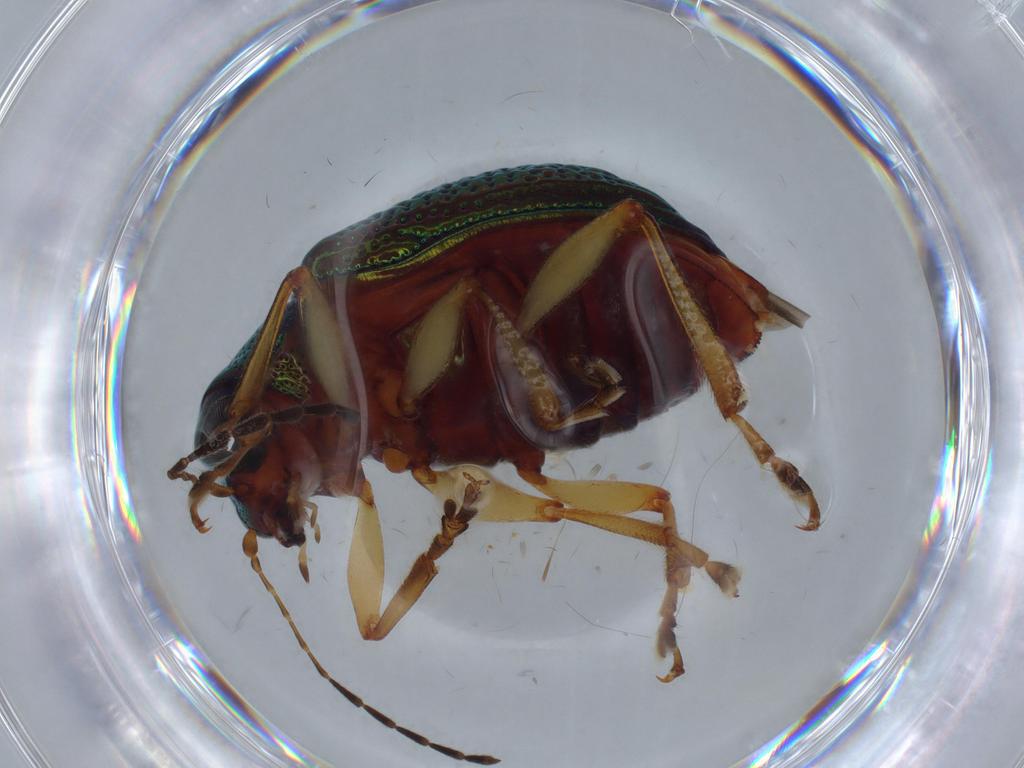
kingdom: Animalia
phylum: Arthropoda
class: Insecta
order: Coleoptera
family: Chrysomelidae
